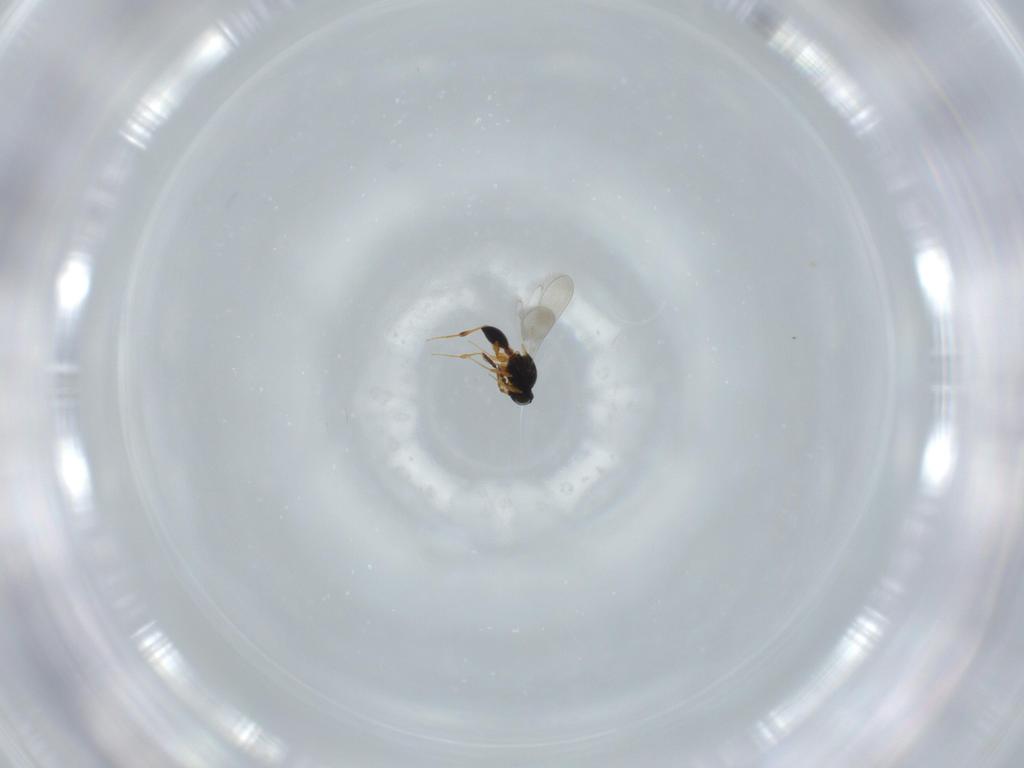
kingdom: Animalia
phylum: Arthropoda
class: Insecta
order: Hymenoptera
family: Platygastridae
